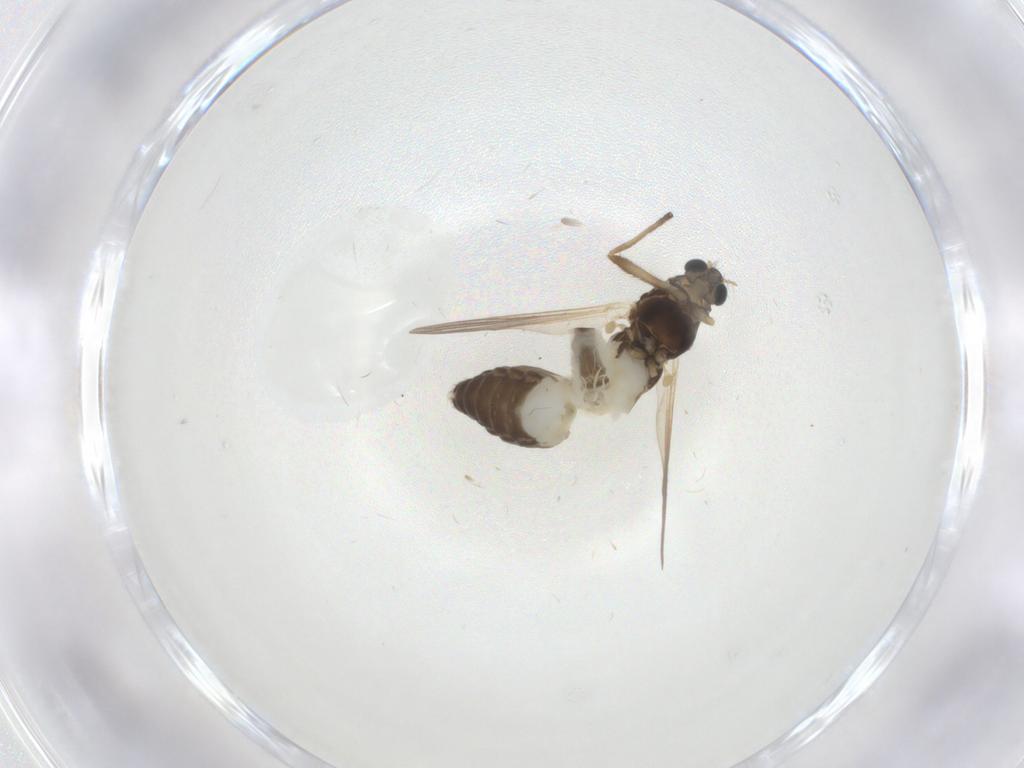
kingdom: Animalia
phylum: Arthropoda
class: Insecta
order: Diptera
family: Chironomidae
